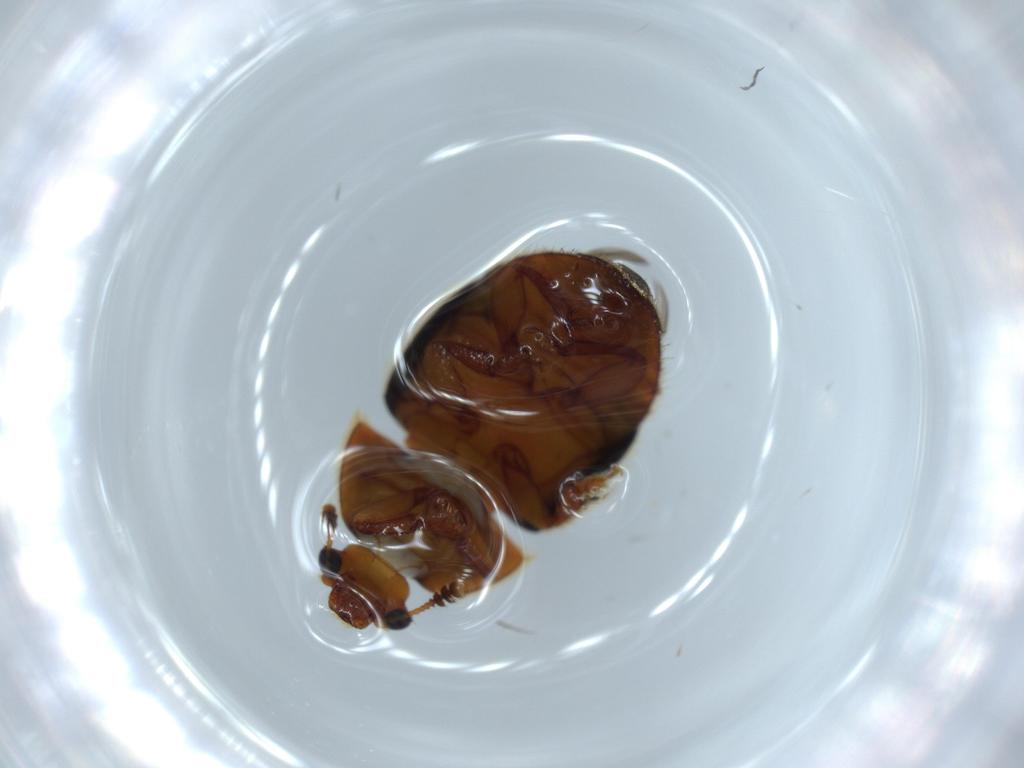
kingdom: Animalia
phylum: Arthropoda
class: Insecta
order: Coleoptera
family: Nitidulidae
